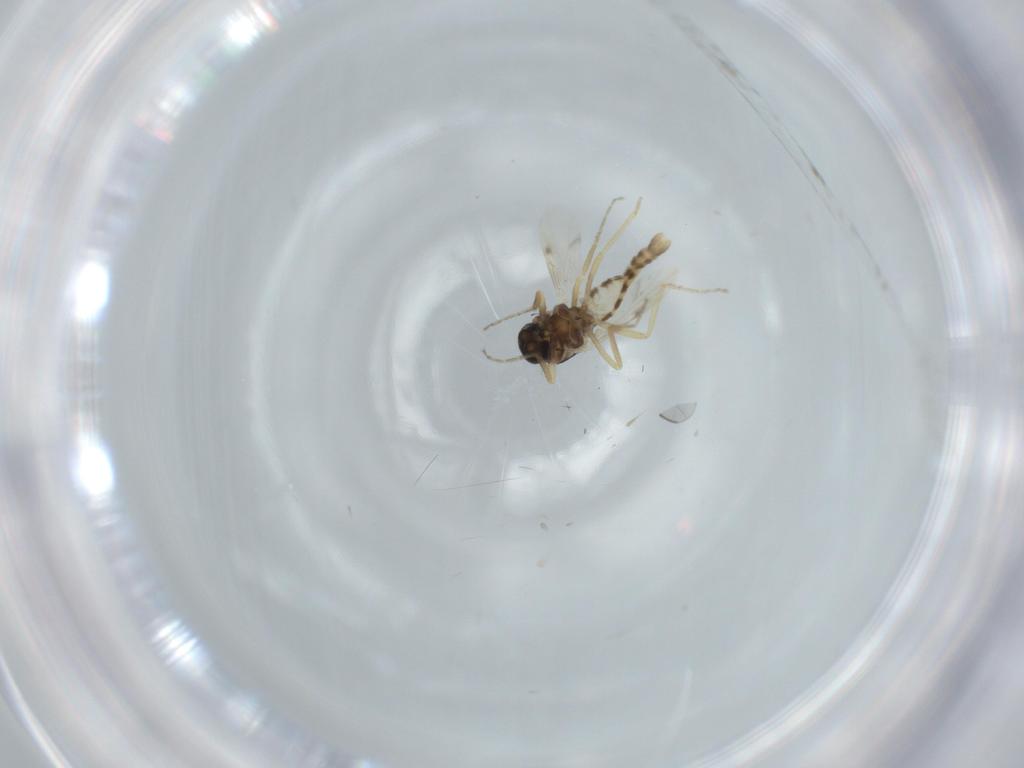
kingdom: Animalia
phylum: Arthropoda
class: Insecta
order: Diptera
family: Ceratopogonidae
